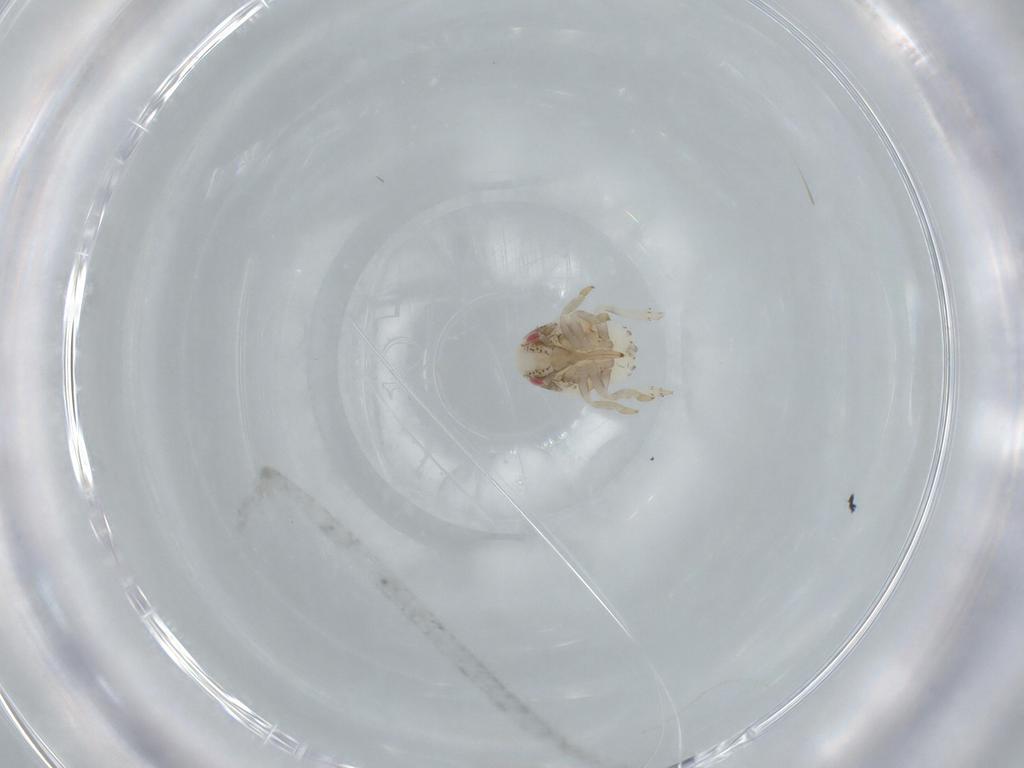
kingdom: Animalia
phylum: Arthropoda
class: Insecta
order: Hemiptera
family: Acanaloniidae
